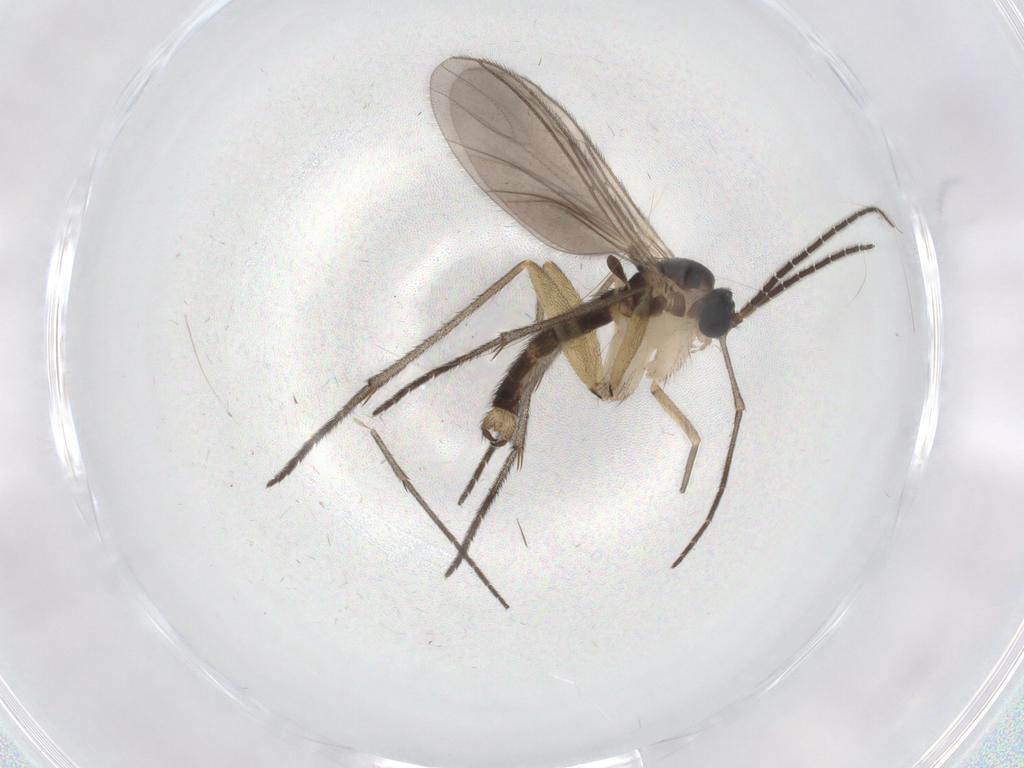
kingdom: Animalia
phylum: Arthropoda
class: Insecta
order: Diptera
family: Sciaridae
